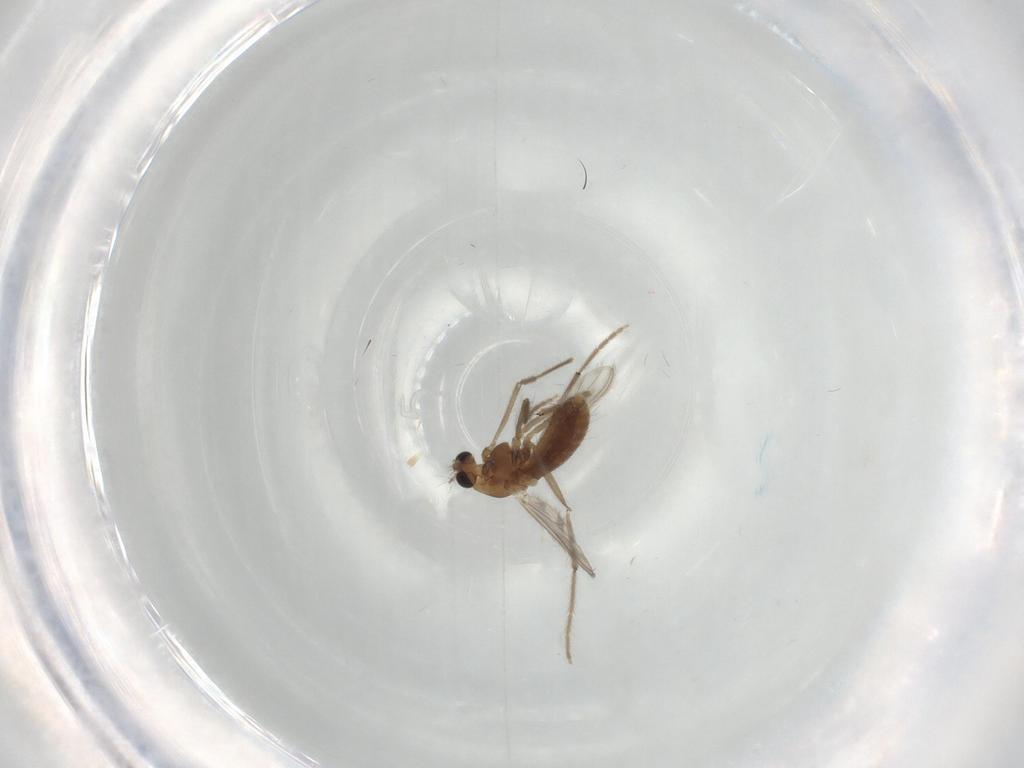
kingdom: Animalia
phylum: Arthropoda
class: Insecta
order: Diptera
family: Chironomidae
